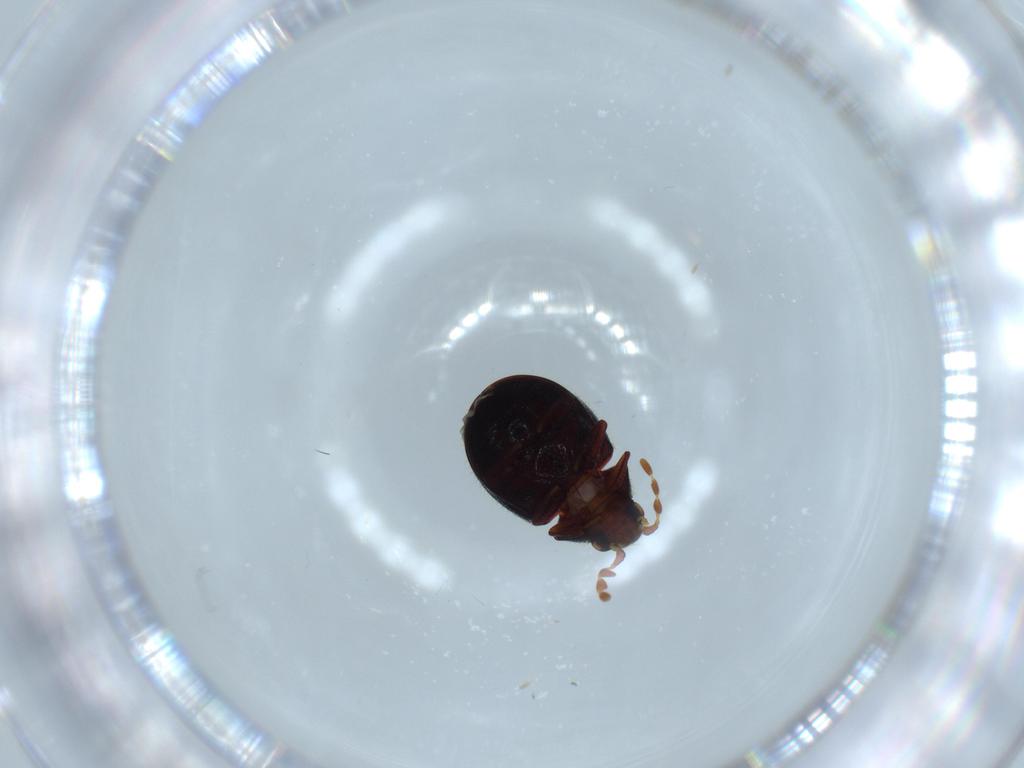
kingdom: Animalia
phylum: Arthropoda
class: Insecta
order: Coleoptera
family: Ptinidae
